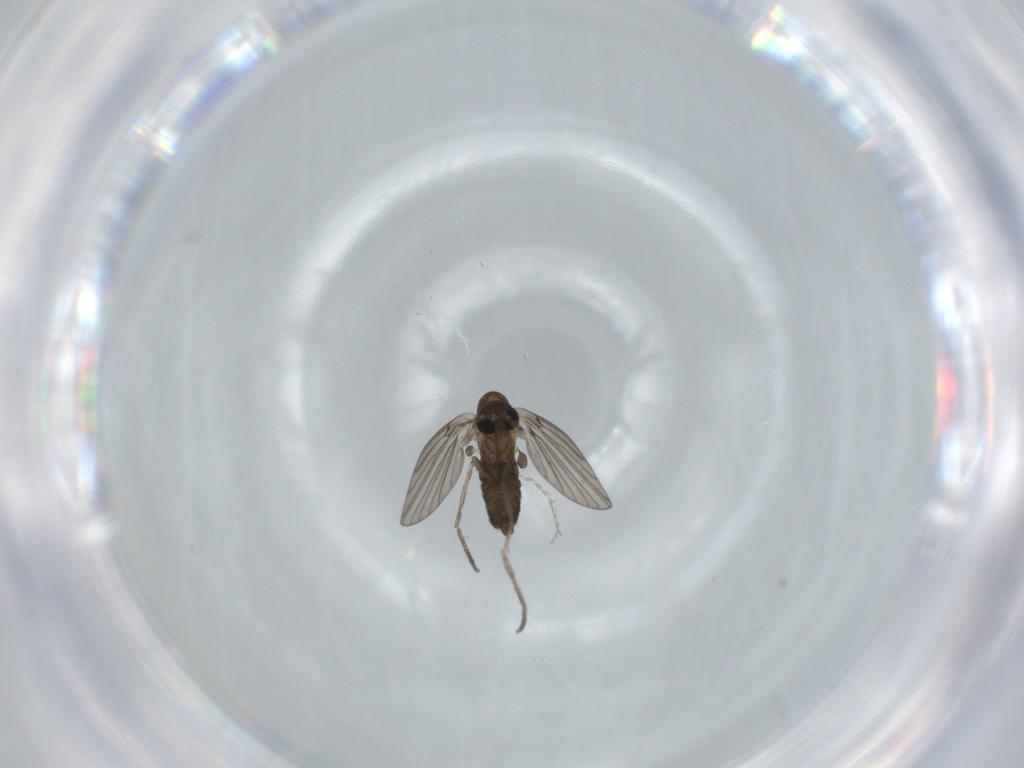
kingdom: Animalia
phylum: Arthropoda
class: Insecta
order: Diptera
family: Psychodidae
